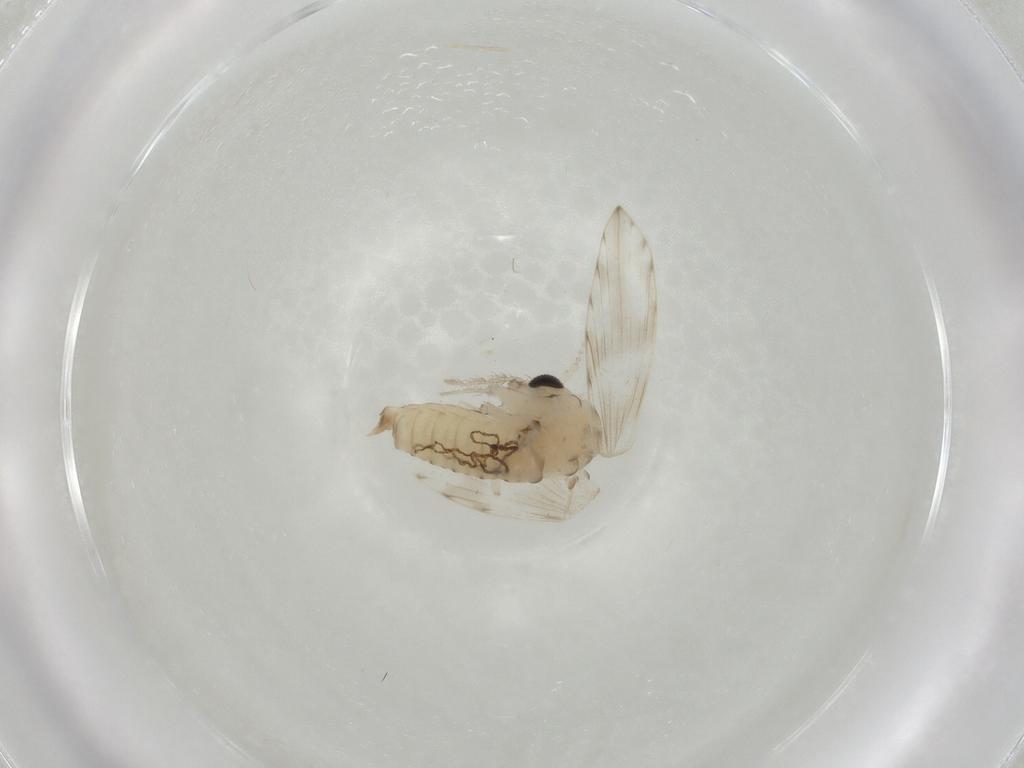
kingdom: Animalia
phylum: Arthropoda
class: Insecta
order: Diptera
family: Psychodidae
